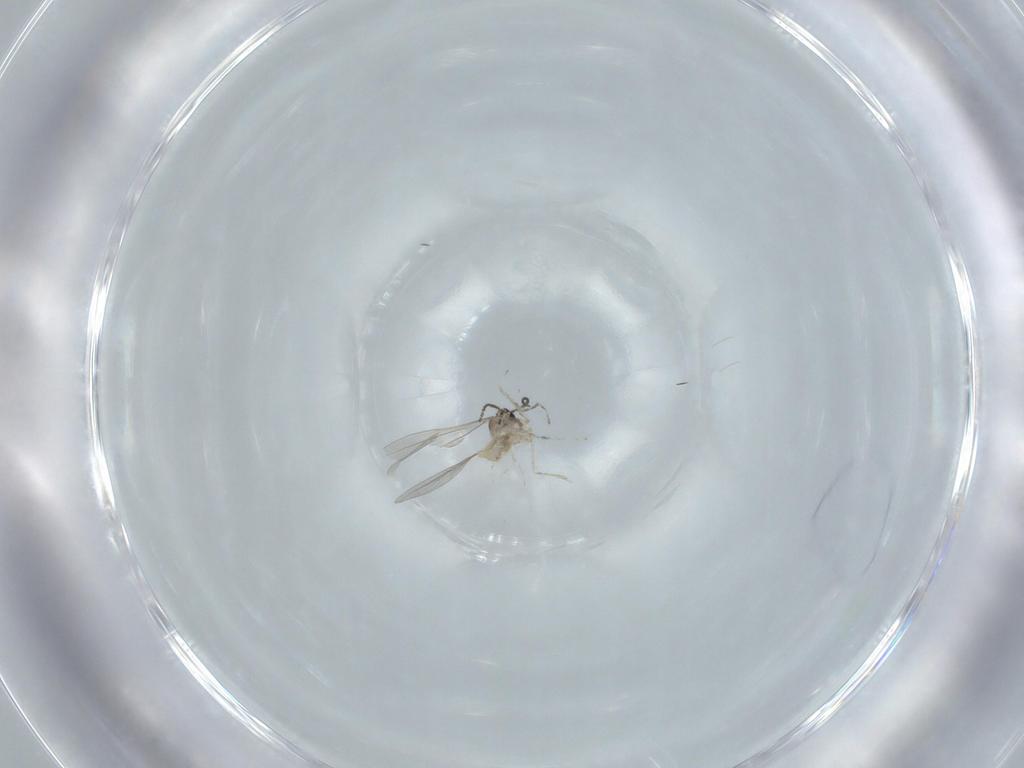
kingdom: Animalia
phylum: Arthropoda
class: Insecta
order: Diptera
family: Cecidomyiidae
